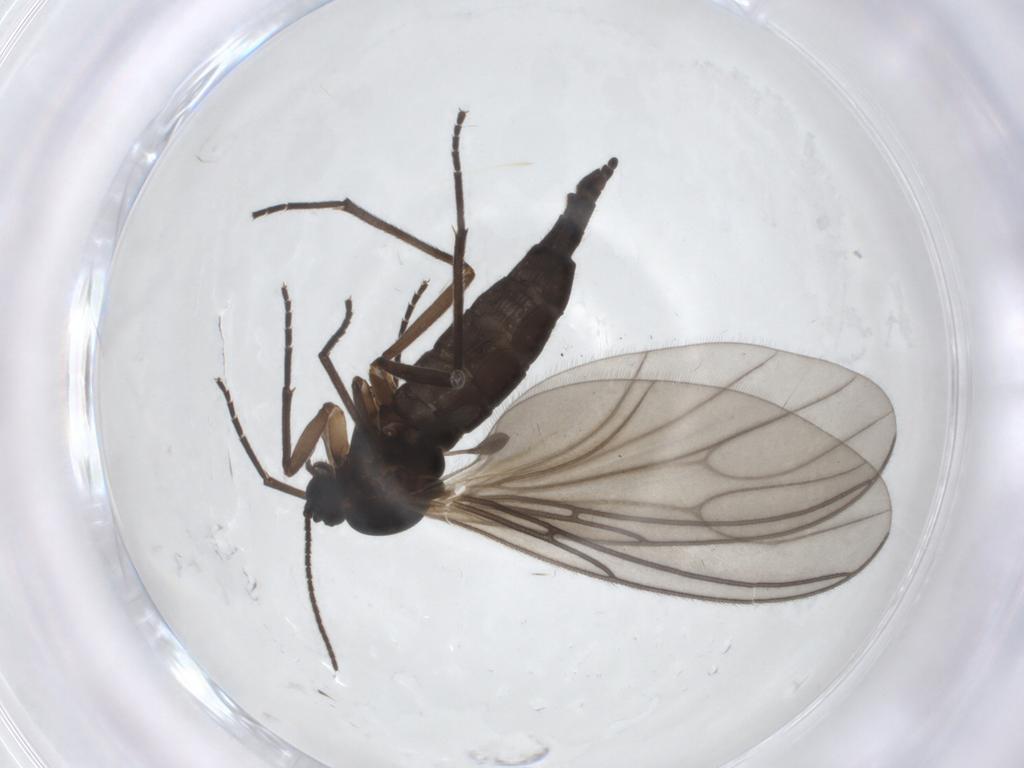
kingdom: Animalia
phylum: Arthropoda
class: Insecta
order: Diptera
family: Sciaridae
